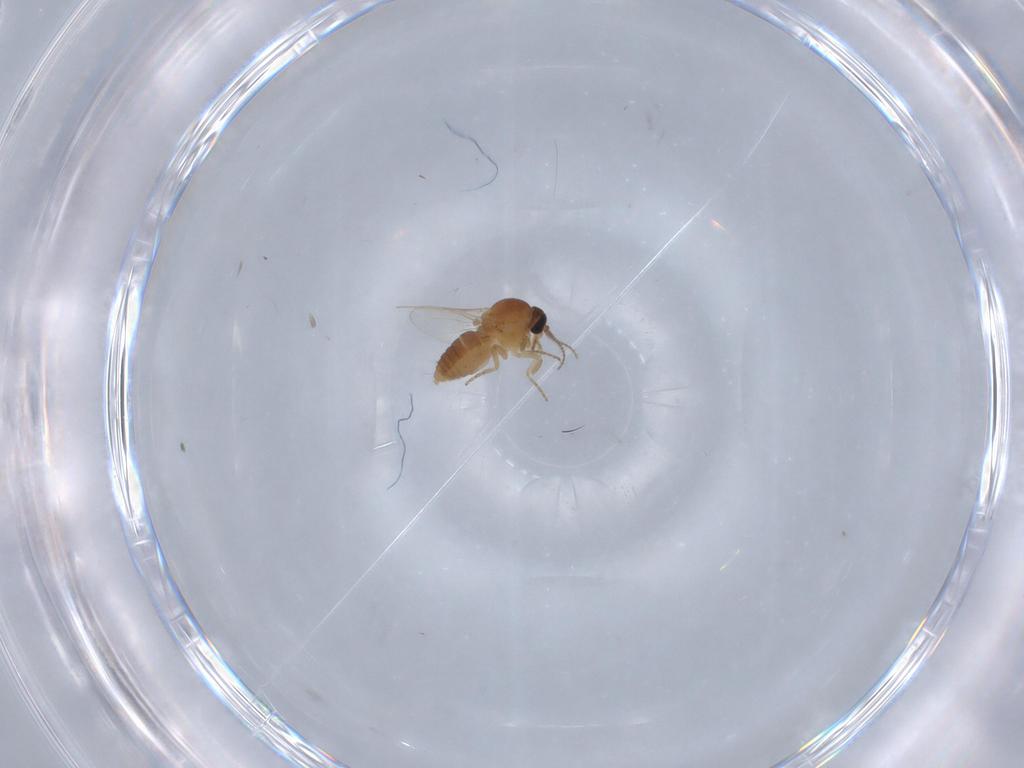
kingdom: Animalia
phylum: Arthropoda
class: Insecta
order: Diptera
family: Ceratopogonidae
